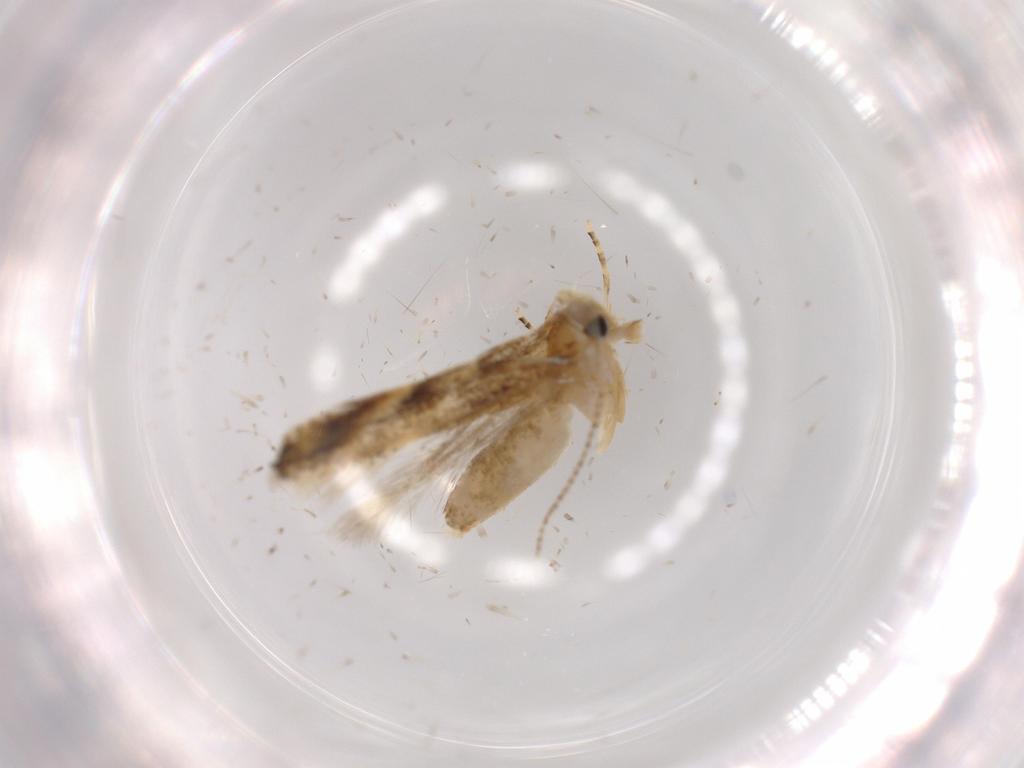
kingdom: Animalia
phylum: Arthropoda
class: Insecta
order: Lepidoptera
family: Bucculatricidae
